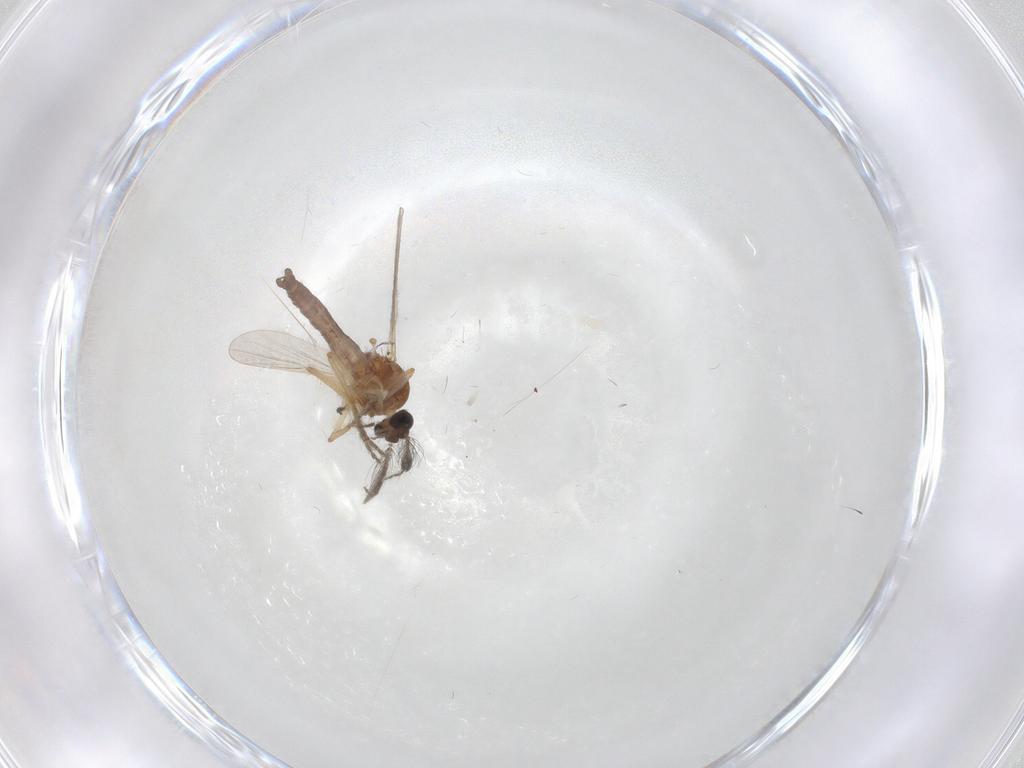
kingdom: Animalia
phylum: Arthropoda
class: Insecta
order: Diptera
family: Ceratopogonidae
